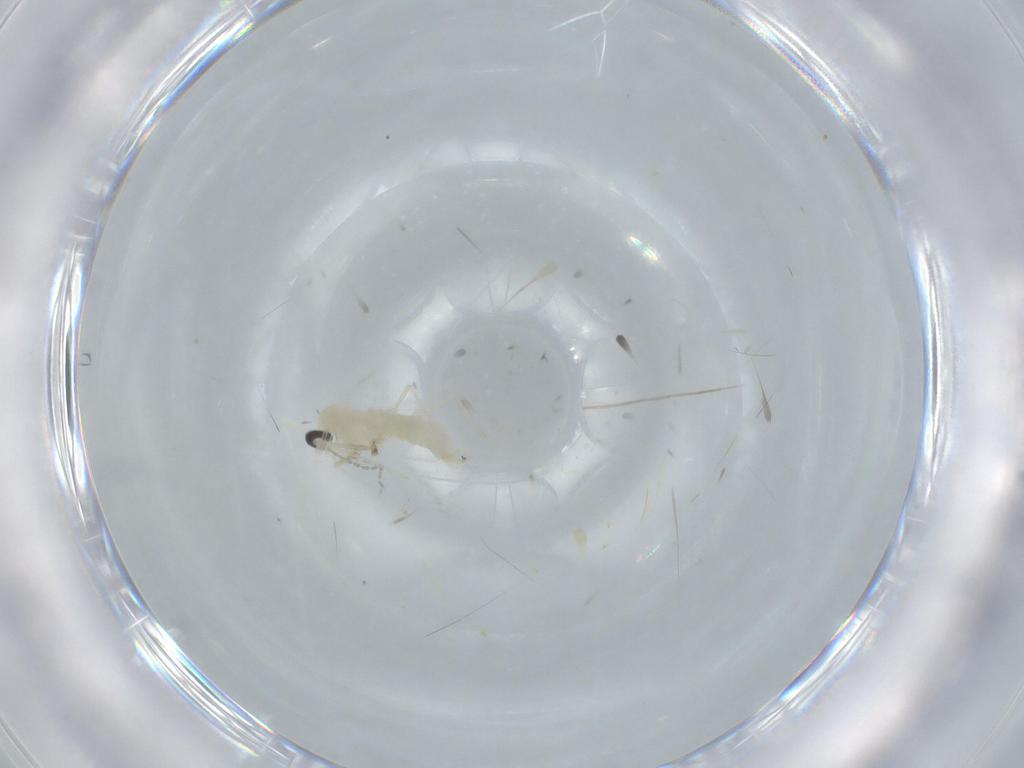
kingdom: Animalia
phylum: Arthropoda
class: Insecta
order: Diptera
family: Cecidomyiidae
